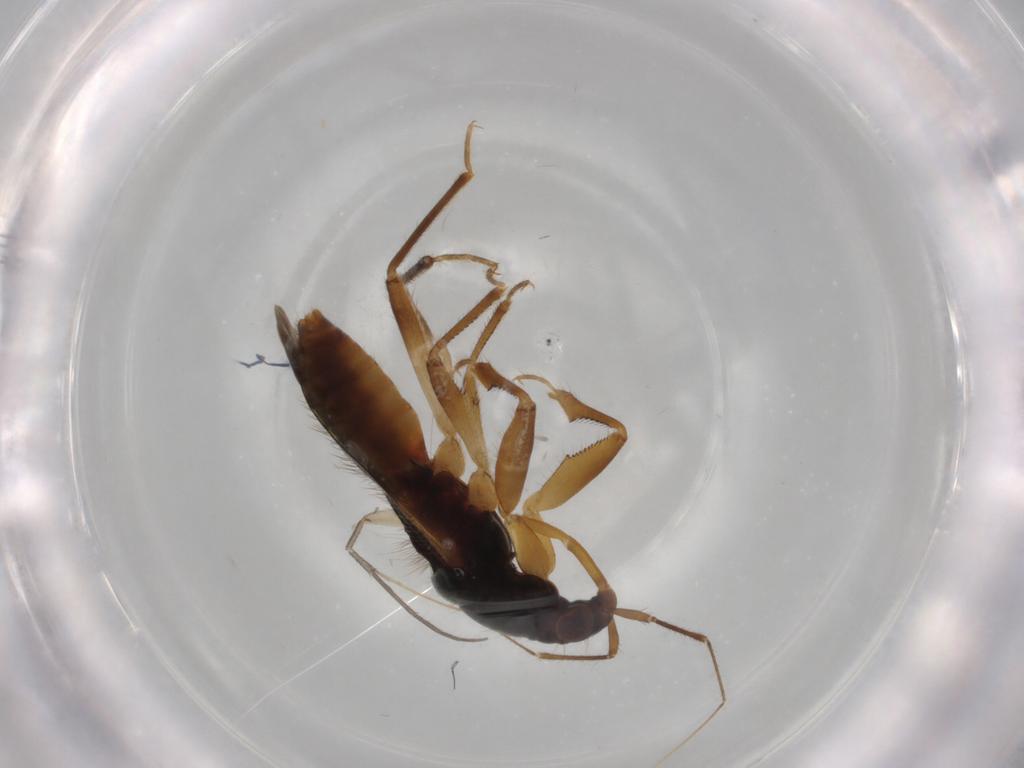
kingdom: Animalia
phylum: Arthropoda
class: Insecta
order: Hemiptera
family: Nabidae
